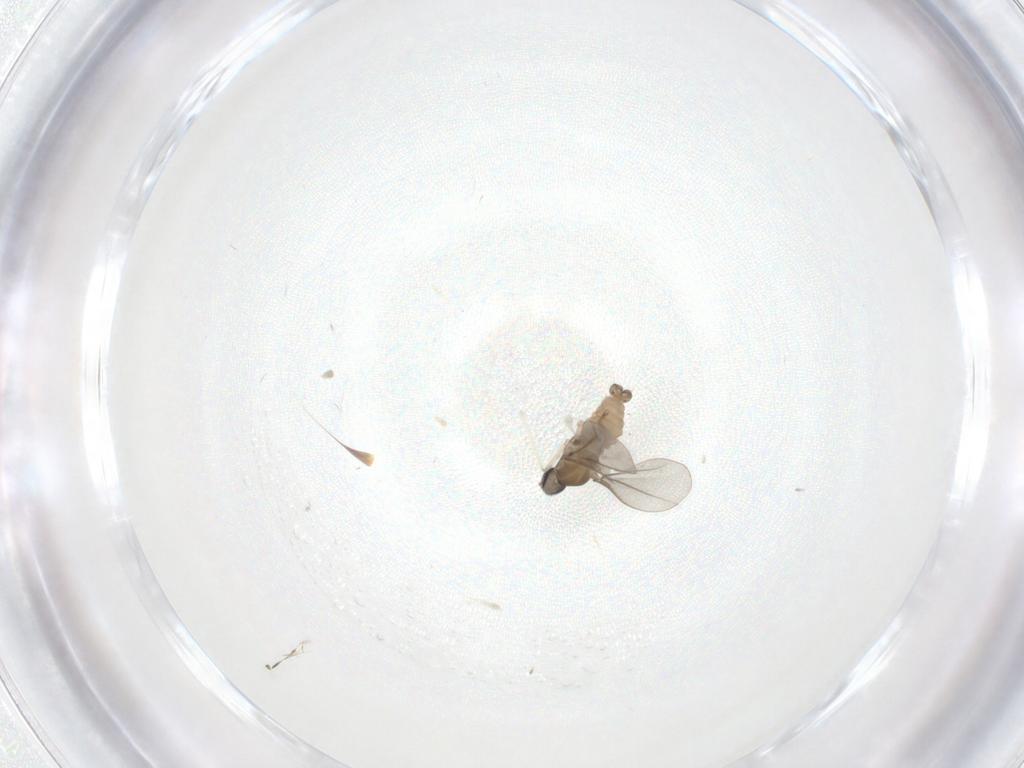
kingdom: Animalia
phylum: Arthropoda
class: Insecta
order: Diptera
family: Cecidomyiidae
